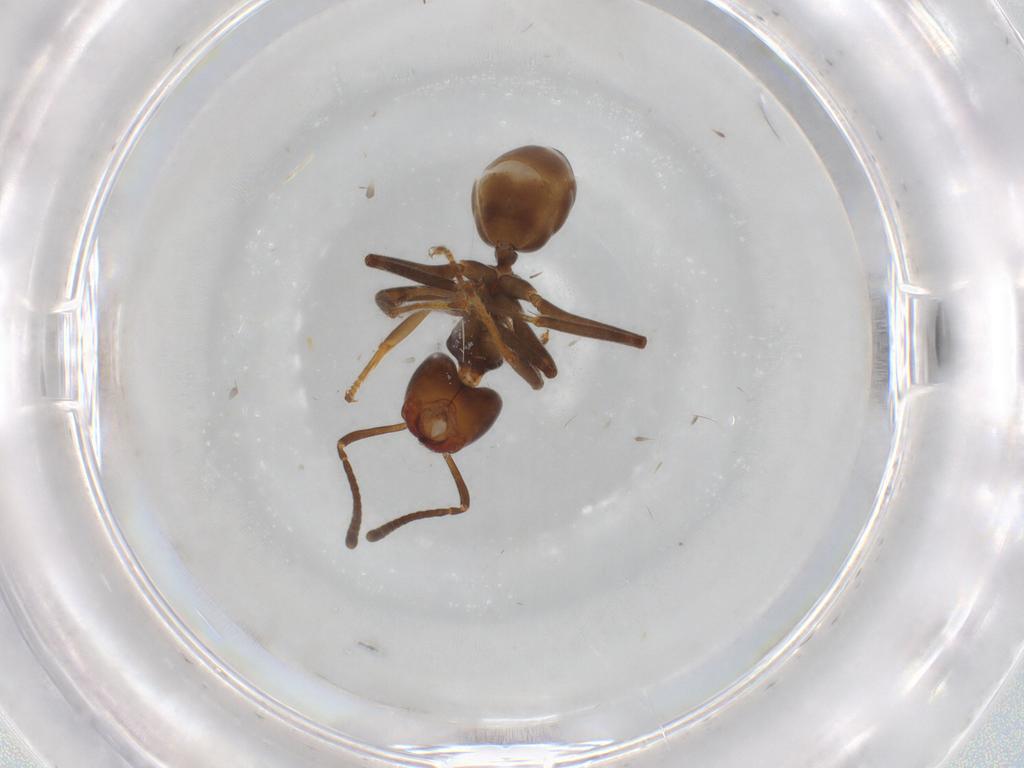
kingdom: Animalia
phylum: Arthropoda
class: Insecta
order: Hymenoptera
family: Formicidae
